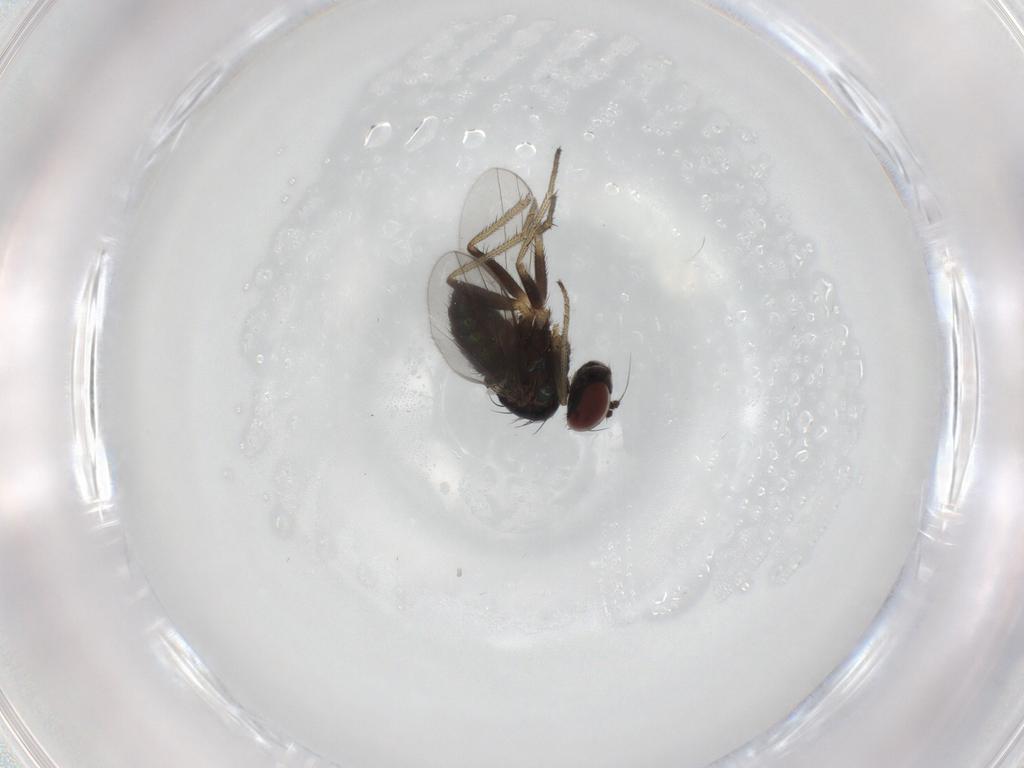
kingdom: Animalia
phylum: Arthropoda
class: Insecta
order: Diptera
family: Dolichopodidae
